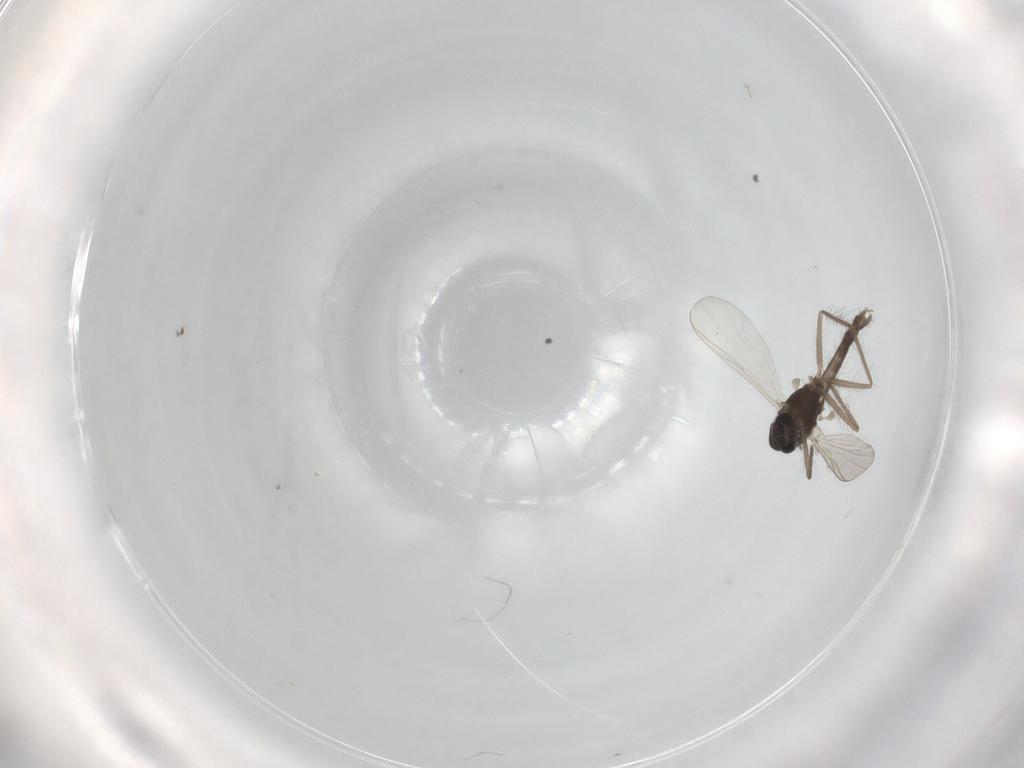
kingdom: Animalia
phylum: Arthropoda
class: Insecta
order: Diptera
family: Chironomidae
